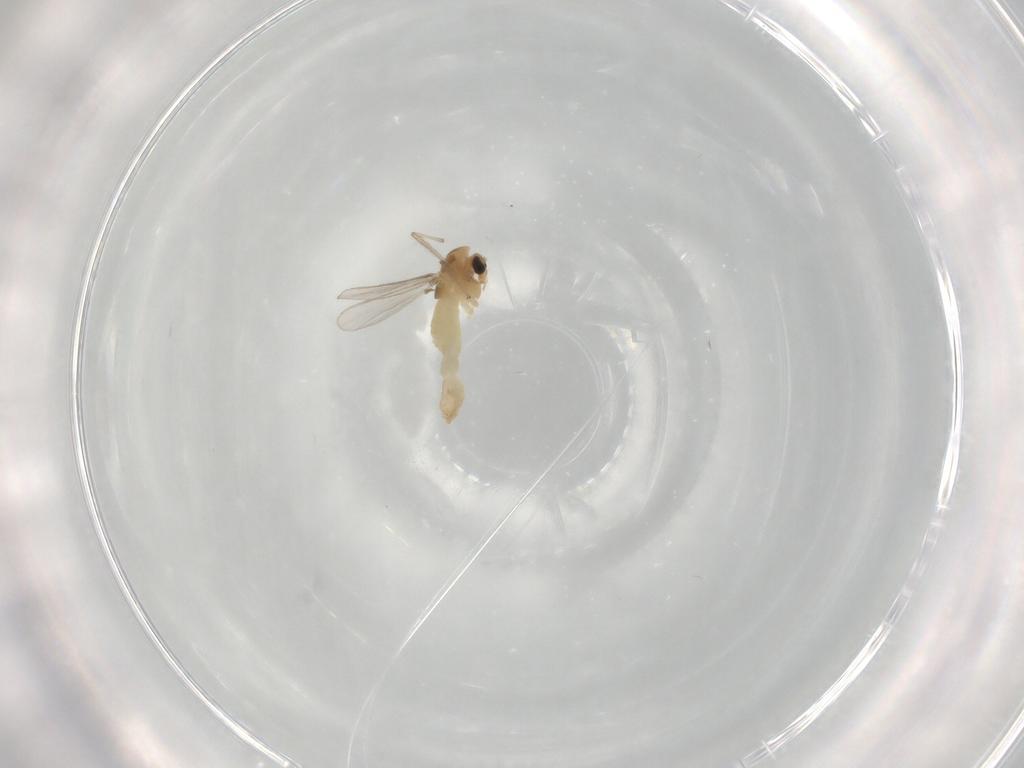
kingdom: Animalia
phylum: Arthropoda
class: Insecta
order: Diptera
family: Chironomidae
